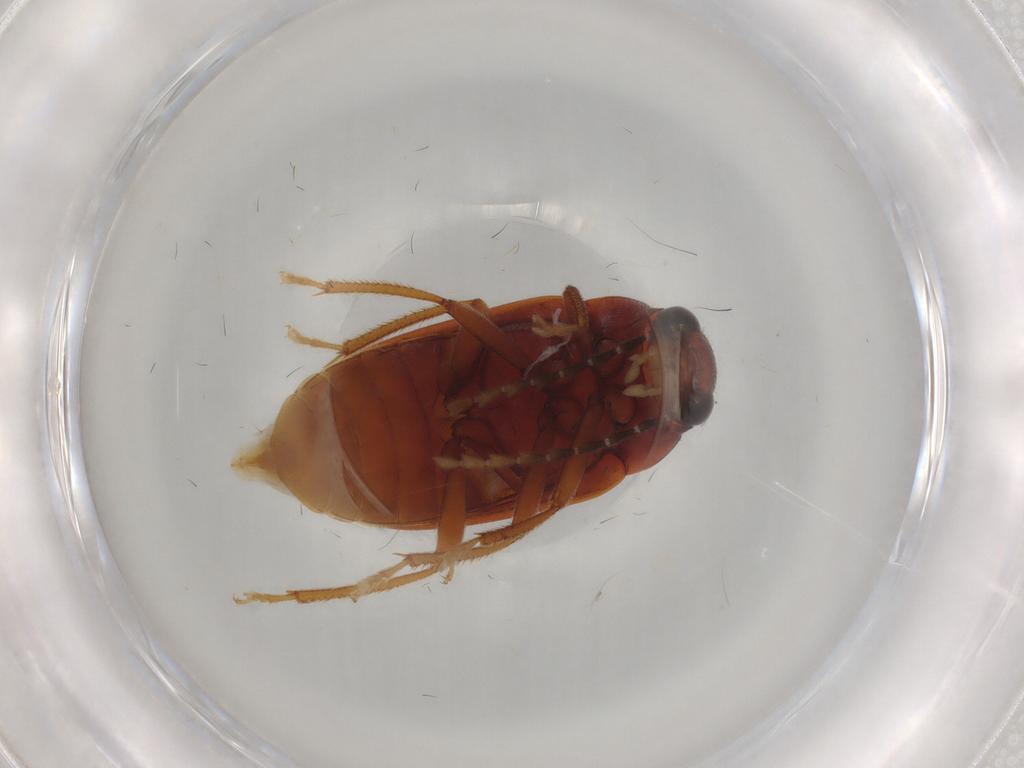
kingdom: Animalia
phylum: Arthropoda
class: Insecta
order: Coleoptera
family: Ptilodactylidae
